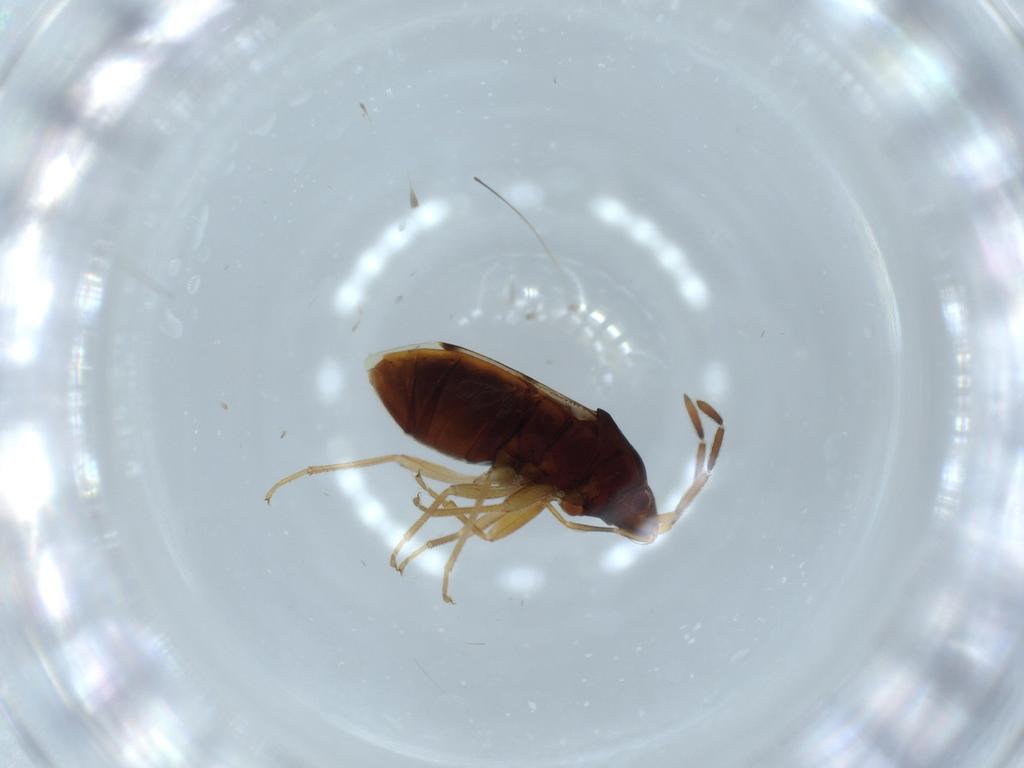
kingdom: Animalia
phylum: Arthropoda
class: Insecta
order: Hemiptera
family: Rhyparochromidae
